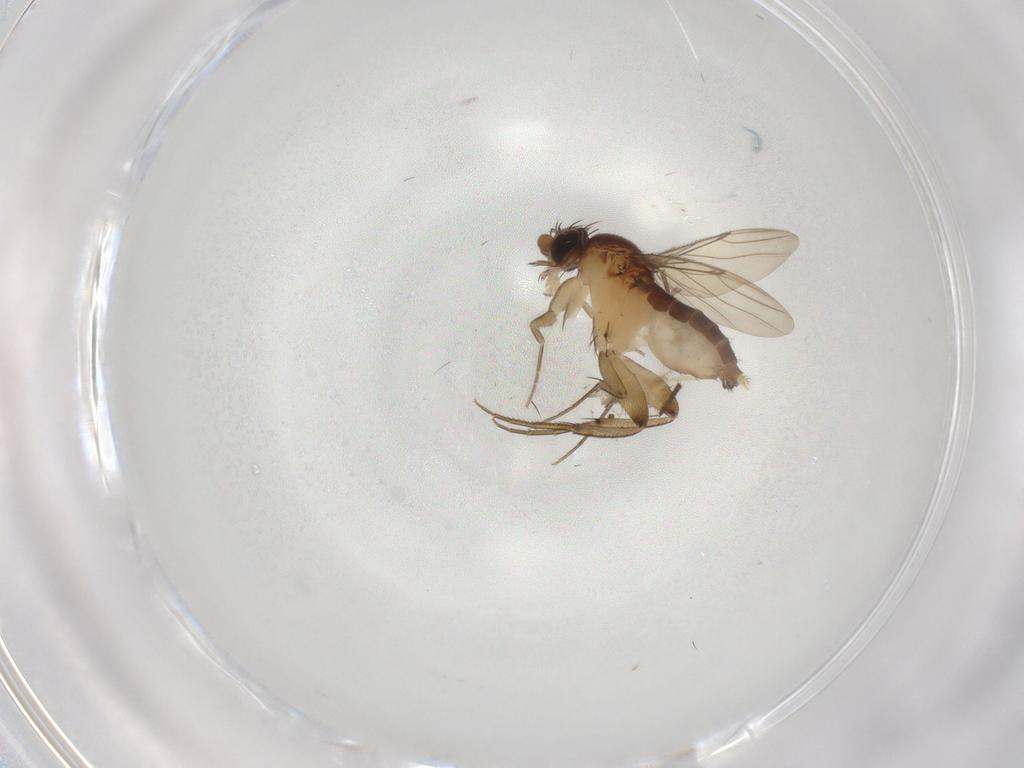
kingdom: Animalia
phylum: Arthropoda
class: Insecta
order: Diptera
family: Phoridae
